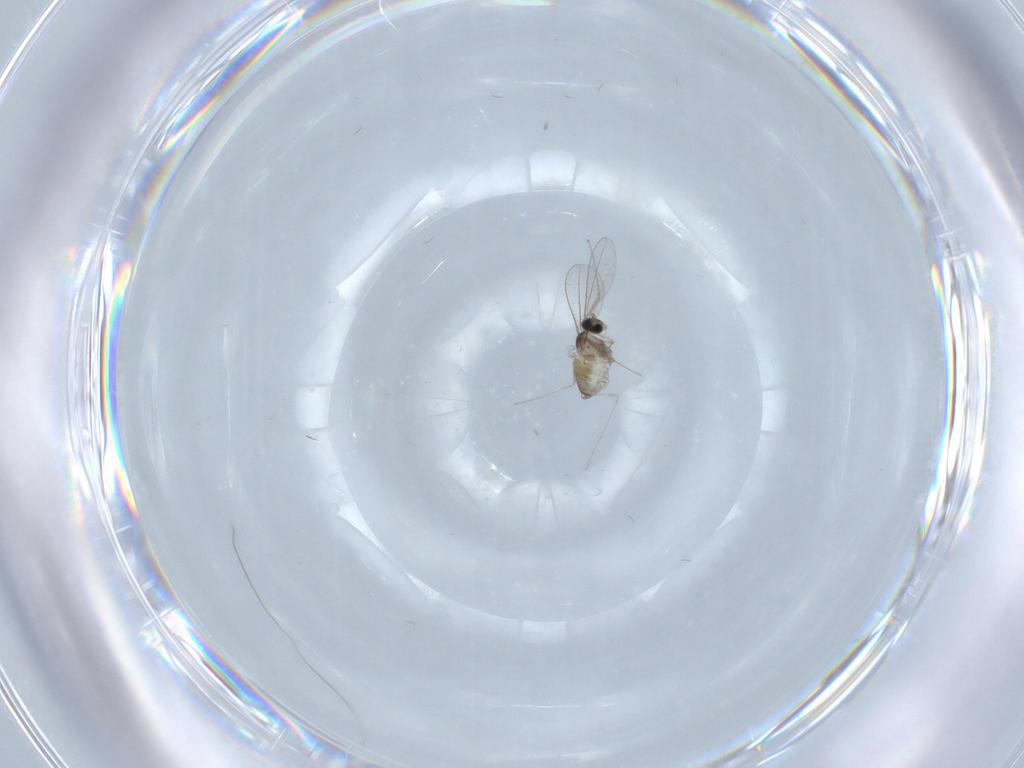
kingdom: Animalia
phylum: Arthropoda
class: Insecta
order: Diptera
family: Cecidomyiidae
